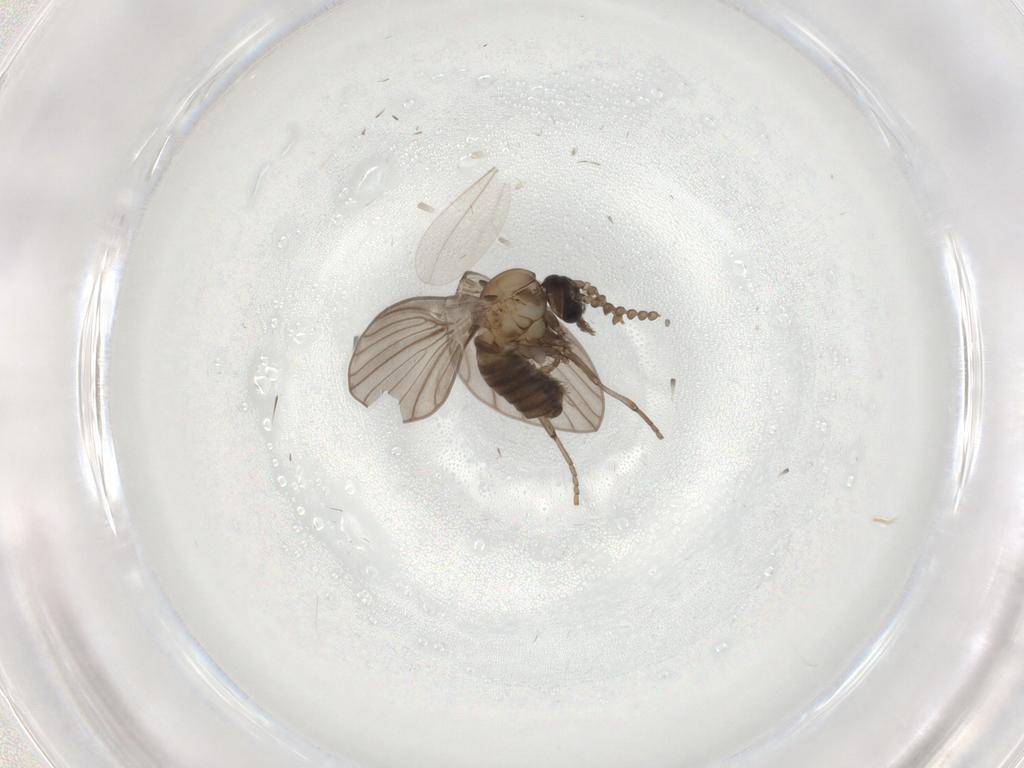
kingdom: Animalia
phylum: Arthropoda
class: Insecta
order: Diptera
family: Psychodidae
